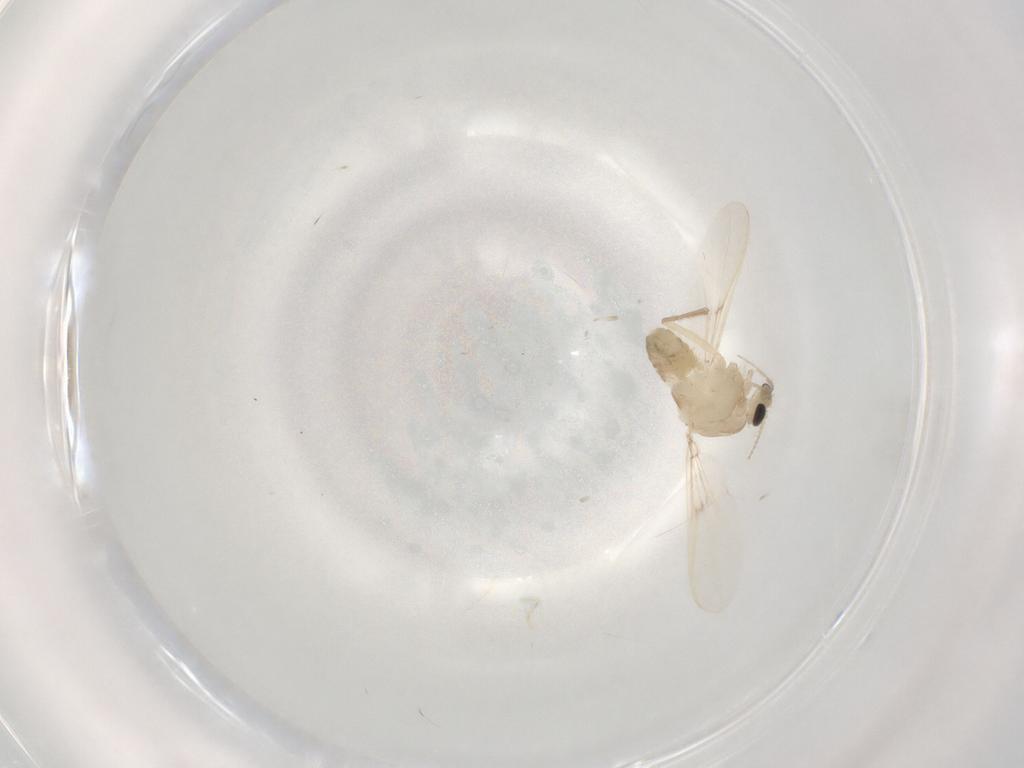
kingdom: Animalia
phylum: Arthropoda
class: Insecta
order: Diptera
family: Chironomidae
